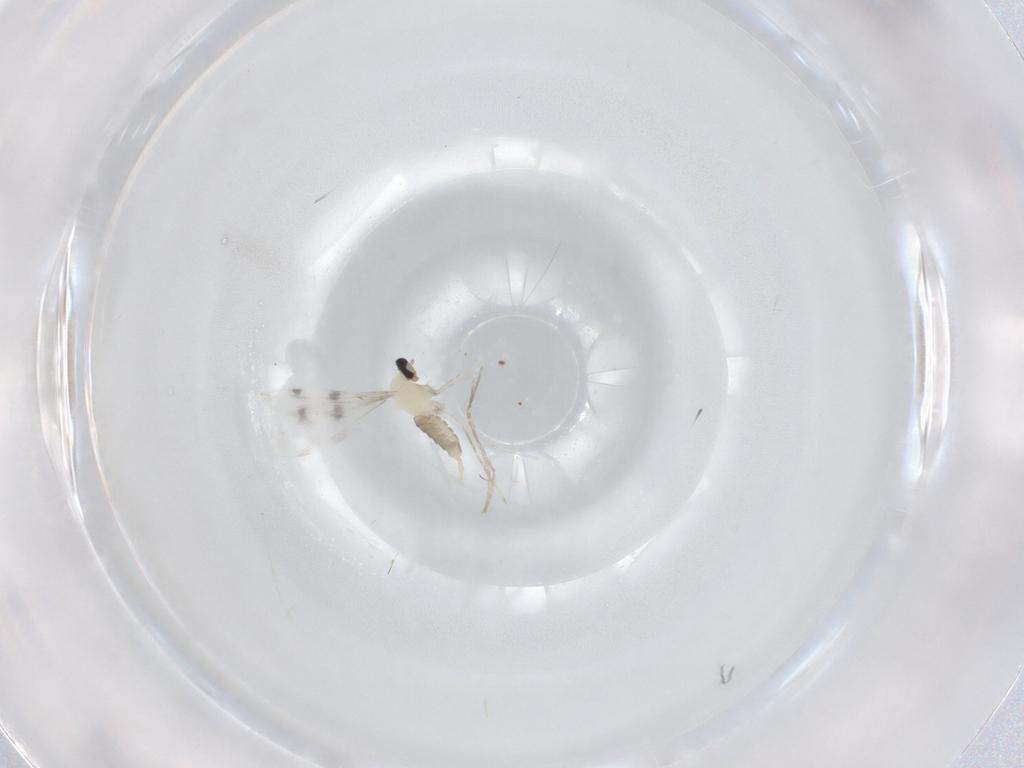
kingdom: Animalia
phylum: Arthropoda
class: Insecta
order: Diptera
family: Cecidomyiidae
